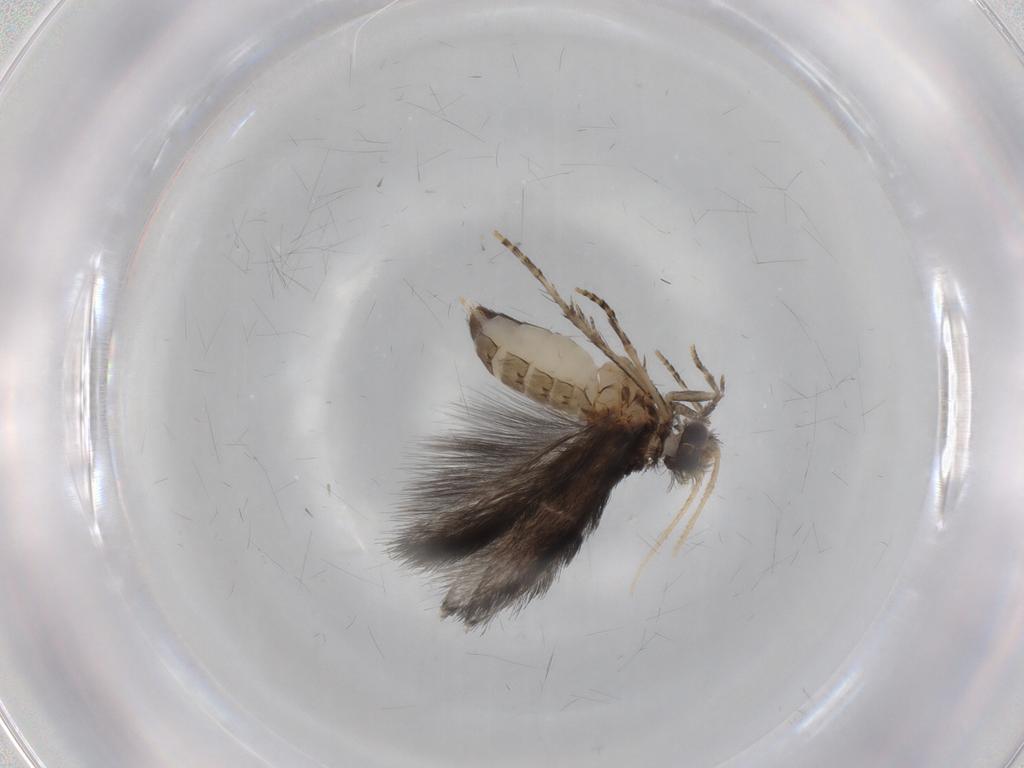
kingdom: Animalia
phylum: Arthropoda
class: Insecta
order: Trichoptera
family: Hydroptilidae
